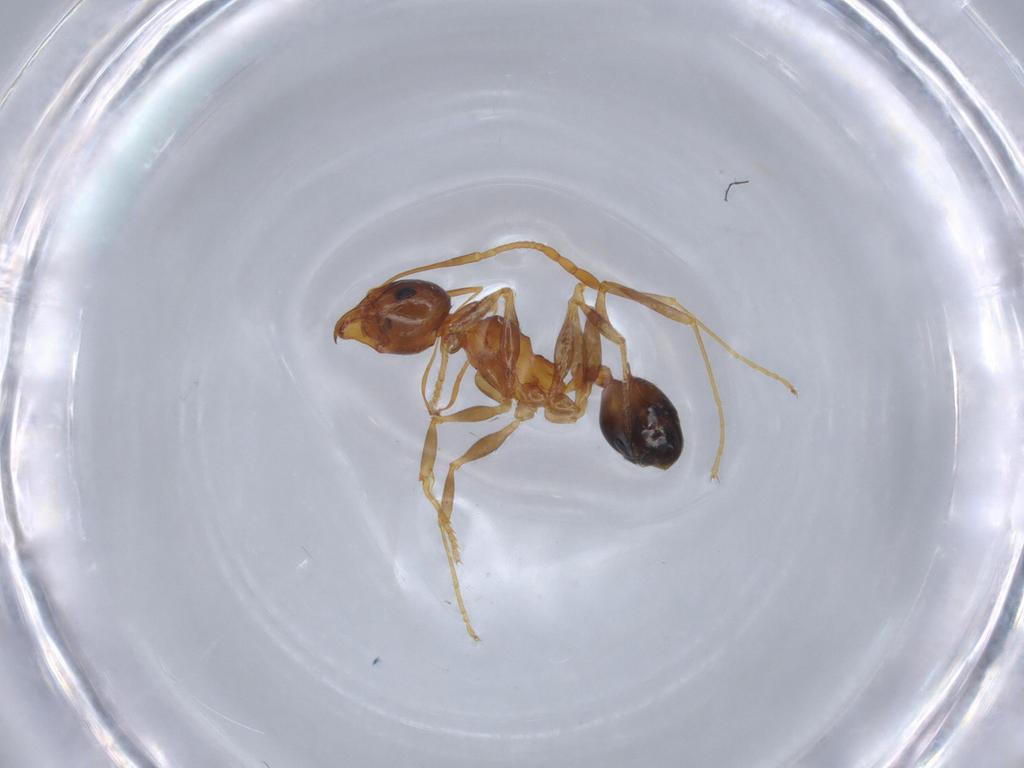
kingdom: Animalia
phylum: Arthropoda
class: Insecta
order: Hymenoptera
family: Formicidae
